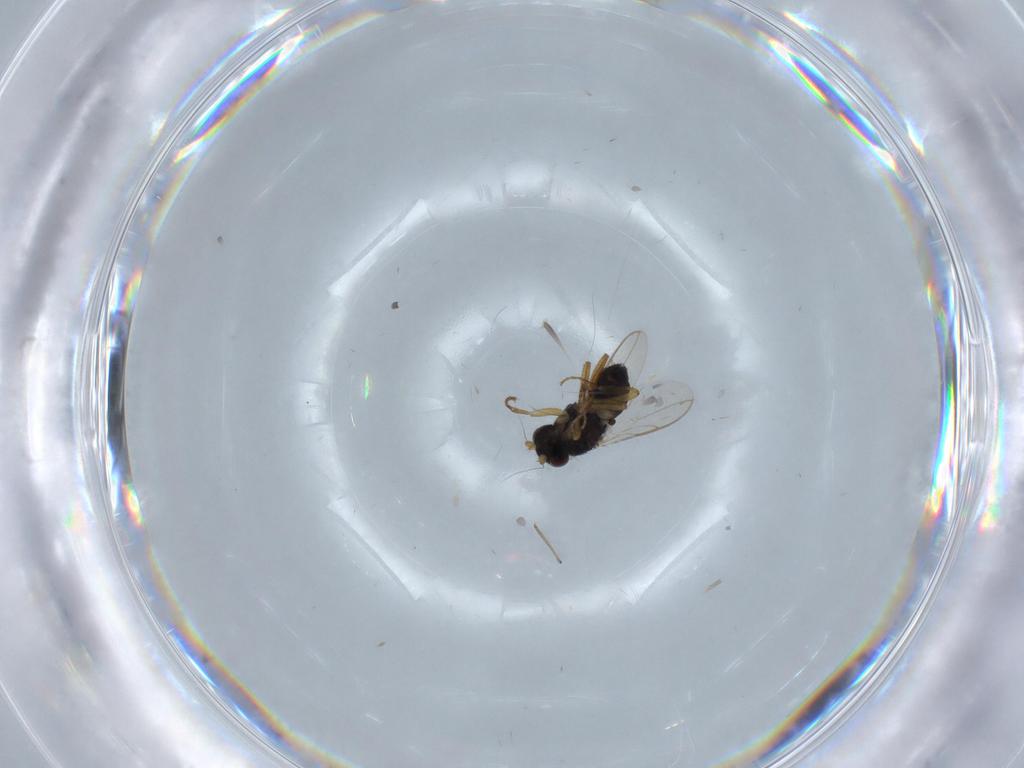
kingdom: Animalia
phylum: Arthropoda
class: Insecta
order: Diptera
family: Sphaeroceridae
